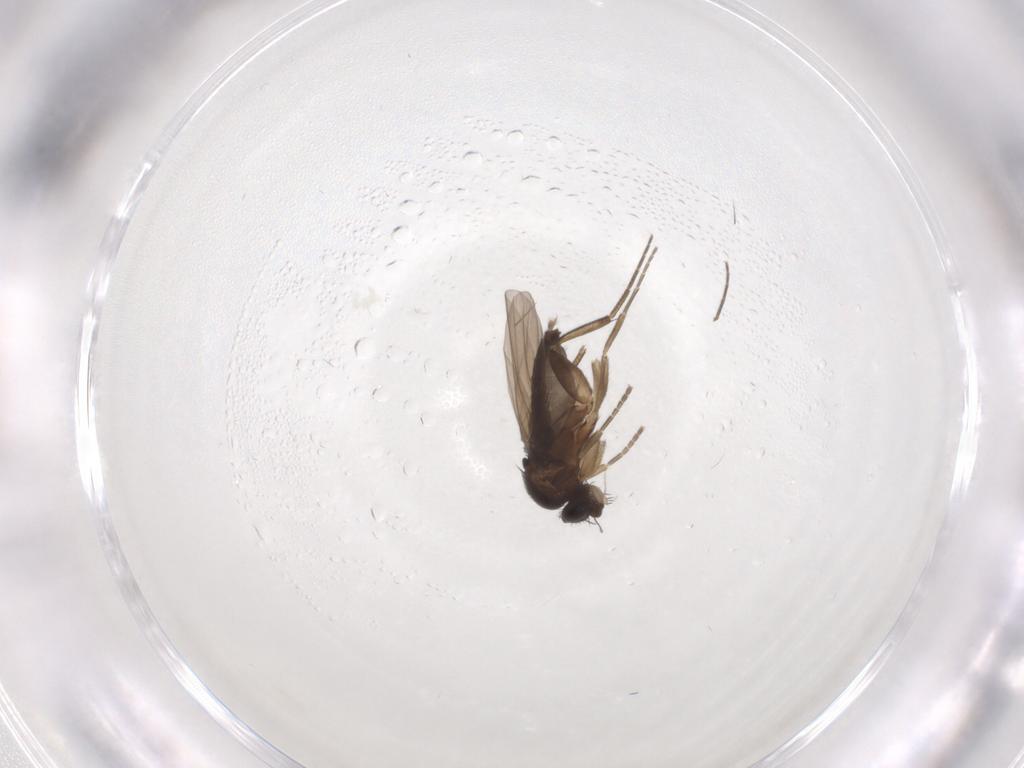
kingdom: Animalia
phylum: Arthropoda
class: Insecta
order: Diptera
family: Phoridae
